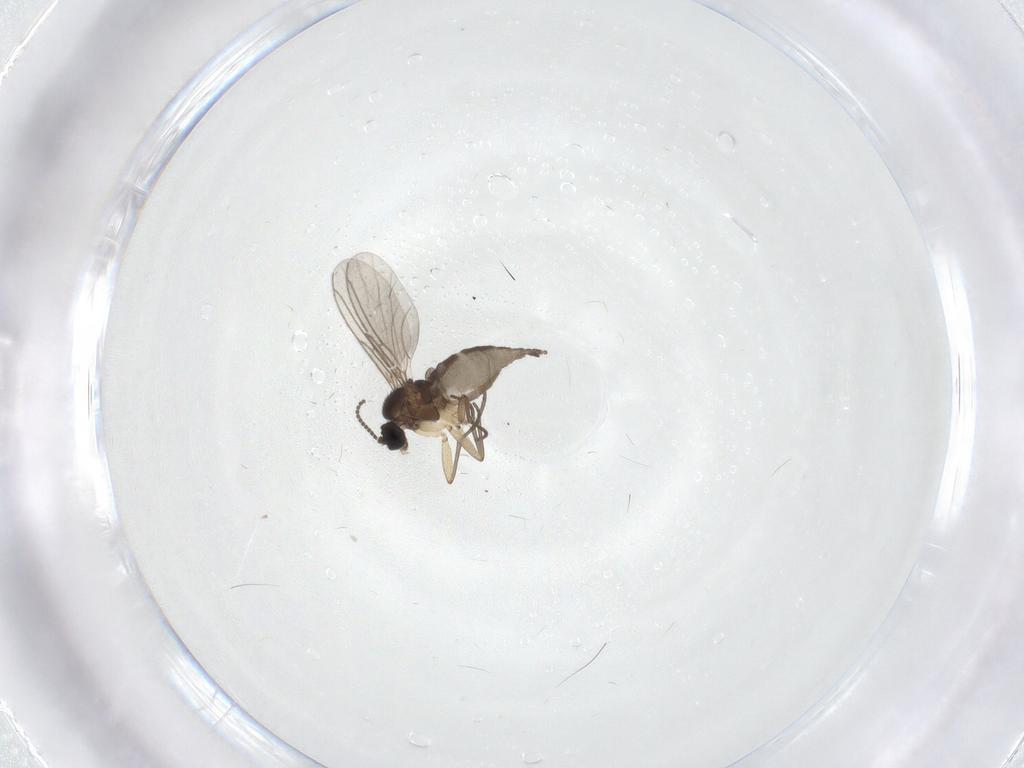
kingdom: Animalia
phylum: Arthropoda
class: Insecta
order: Diptera
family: Sciaridae
